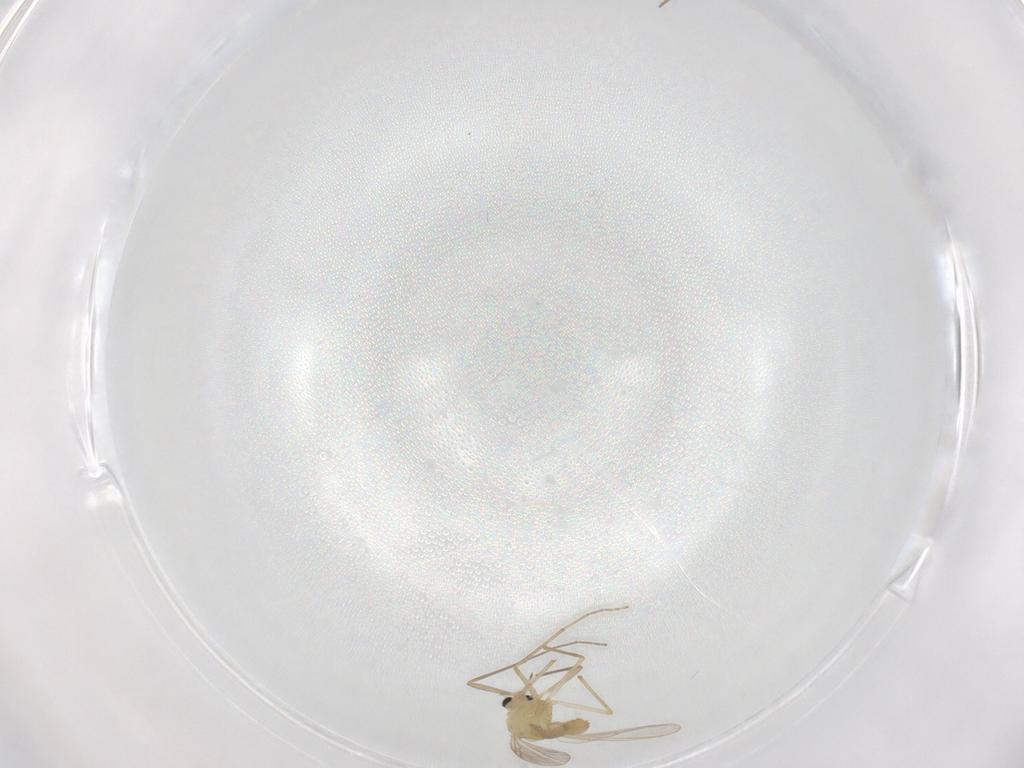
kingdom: Animalia
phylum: Arthropoda
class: Insecta
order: Diptera
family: Chironomidae
